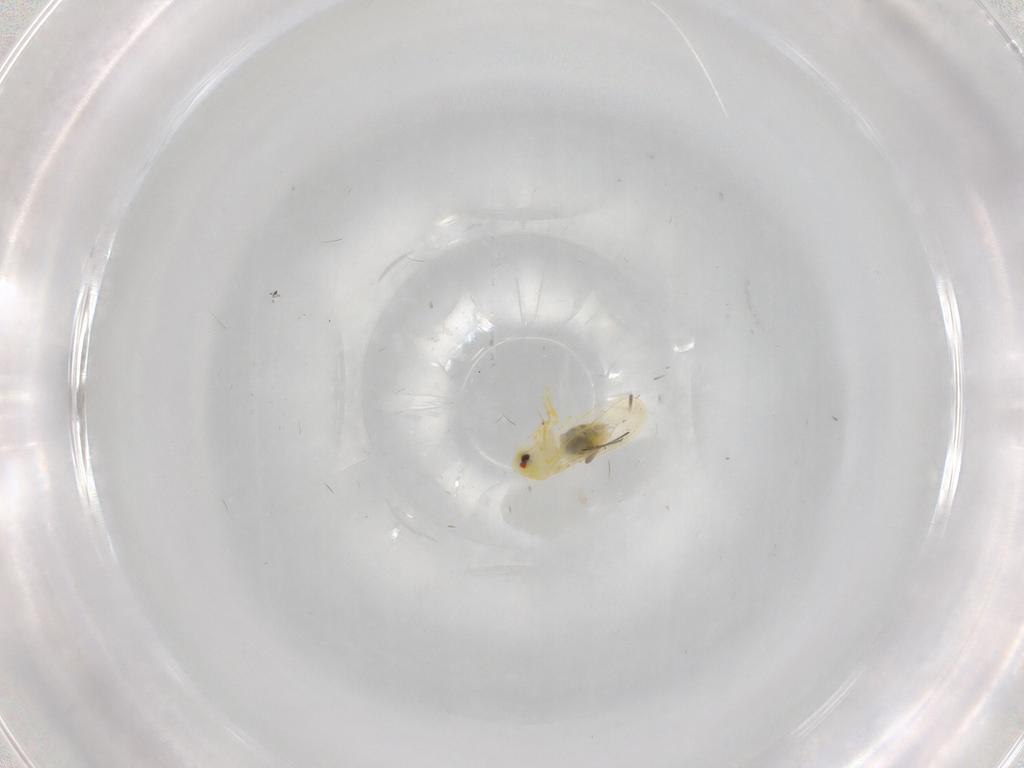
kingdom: Animalia
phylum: Arthropoda
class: Insecta
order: Hemiptera
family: Aleyrodidae
